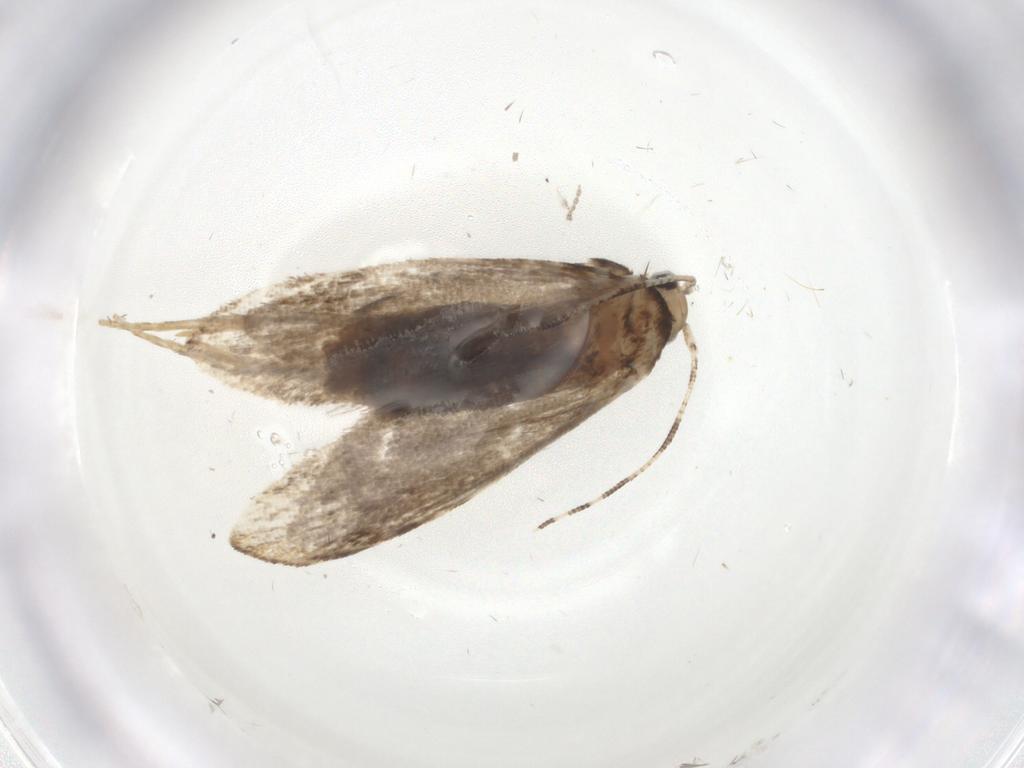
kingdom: Animalia
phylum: Arthropoda
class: Insecta
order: Lepidoptera
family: Tineidae
